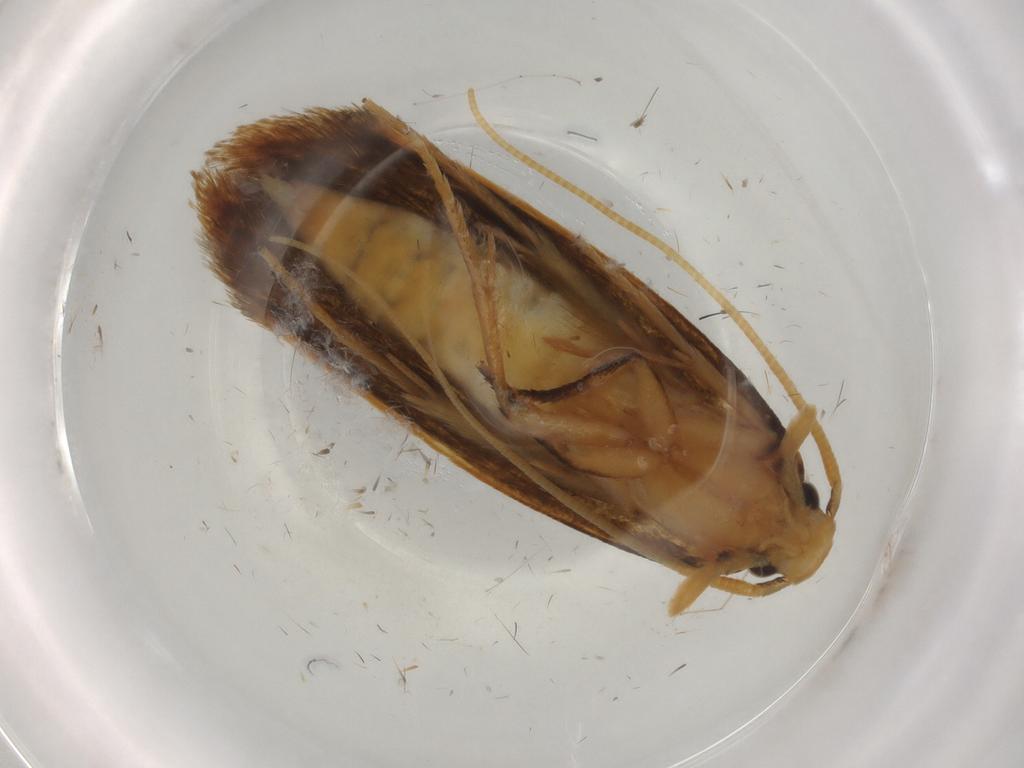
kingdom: Animalia
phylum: Arthropoda
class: Insecta
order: Lepidoptera
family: Tineidae
